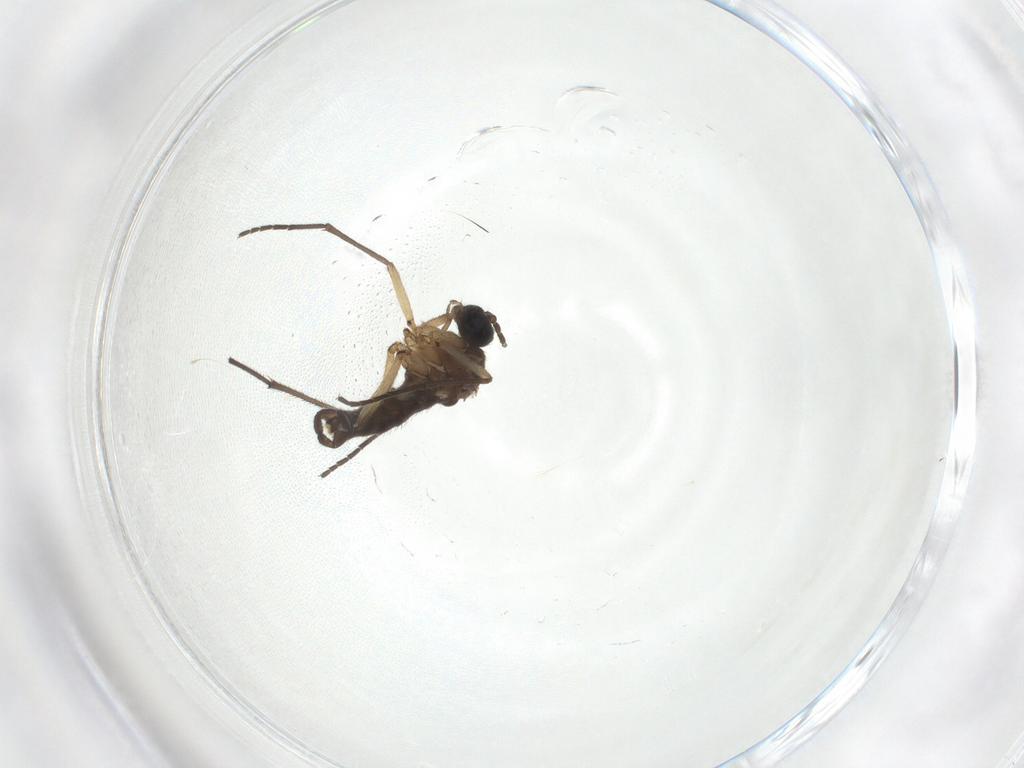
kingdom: Animalia
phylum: Arthropoda
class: Insecta
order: Diptera
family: Sciaridae
